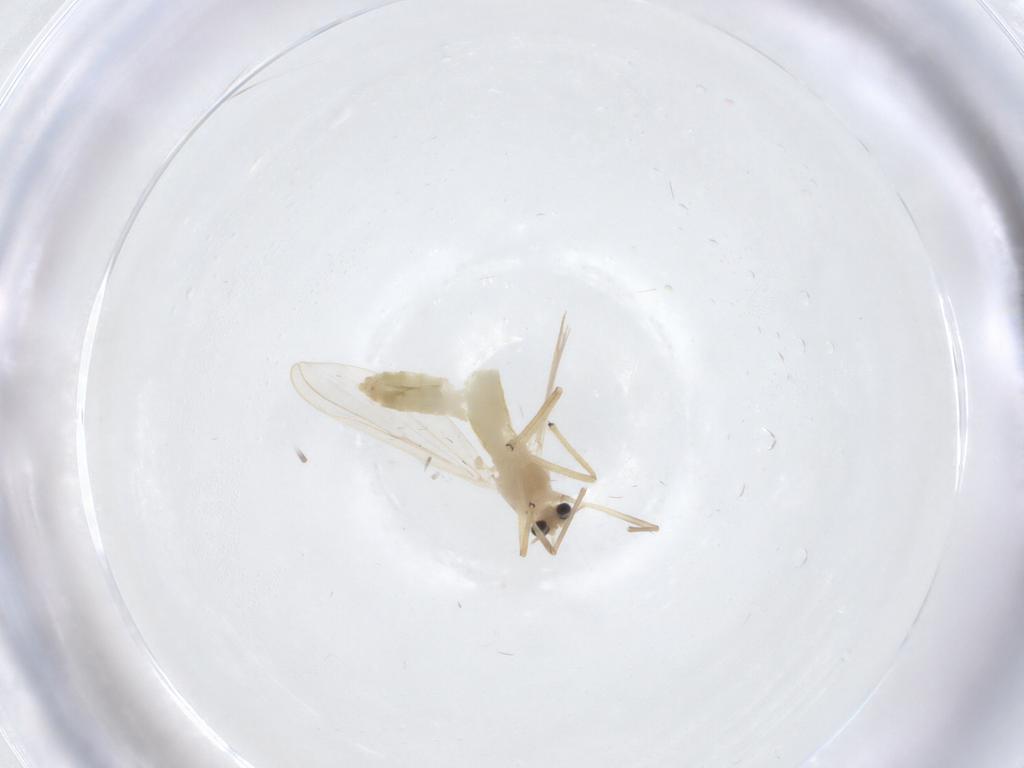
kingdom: Animalia
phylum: Arthropoda
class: Insecta
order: Diptera
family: Chironomidae
